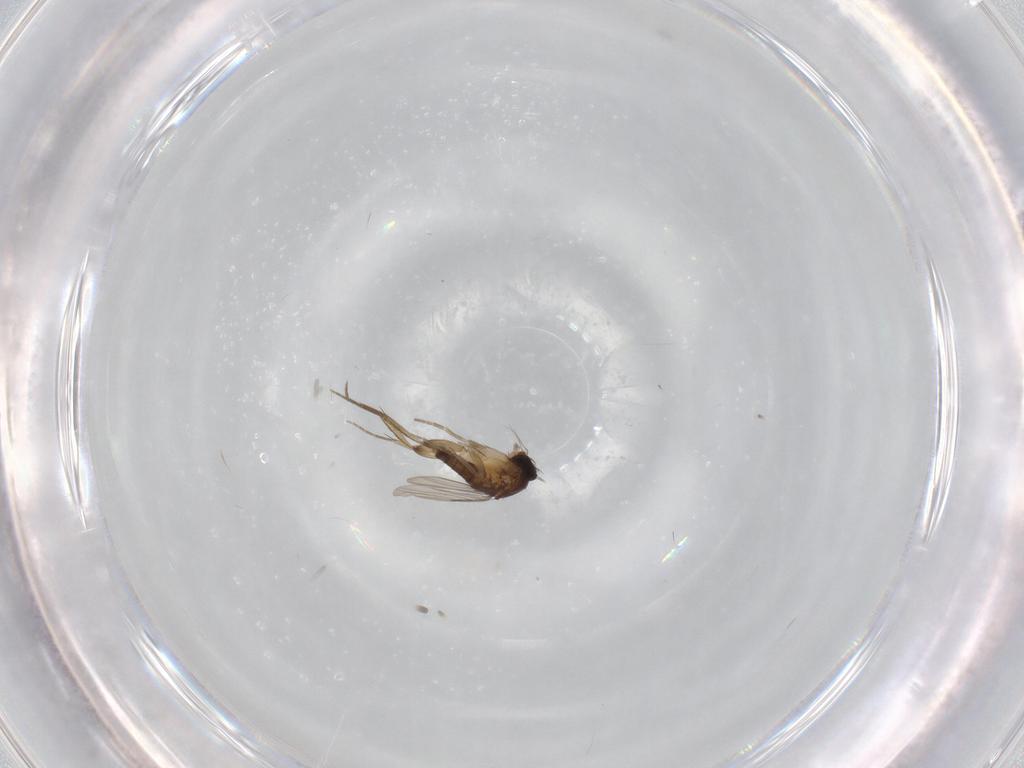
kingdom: Animalia
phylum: Arthropoda
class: Insecta
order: Diptera
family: Phoridae
